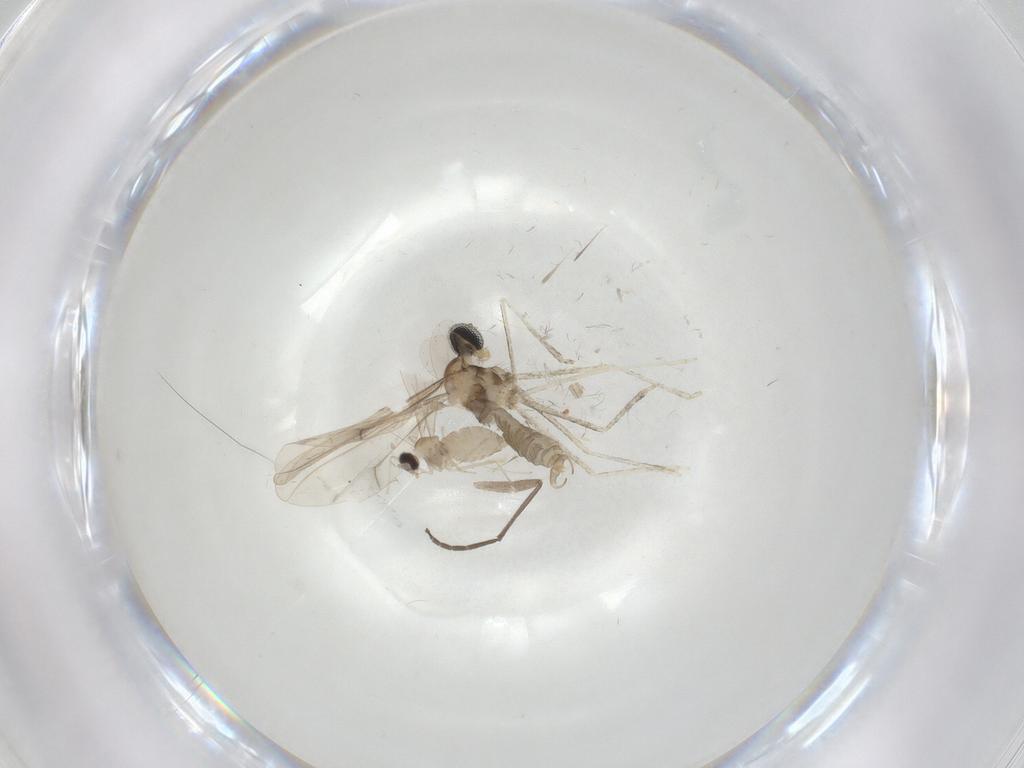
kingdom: Animalia
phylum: Arthropoda
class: Insecta
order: Diptera
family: Cecidomyiidae
